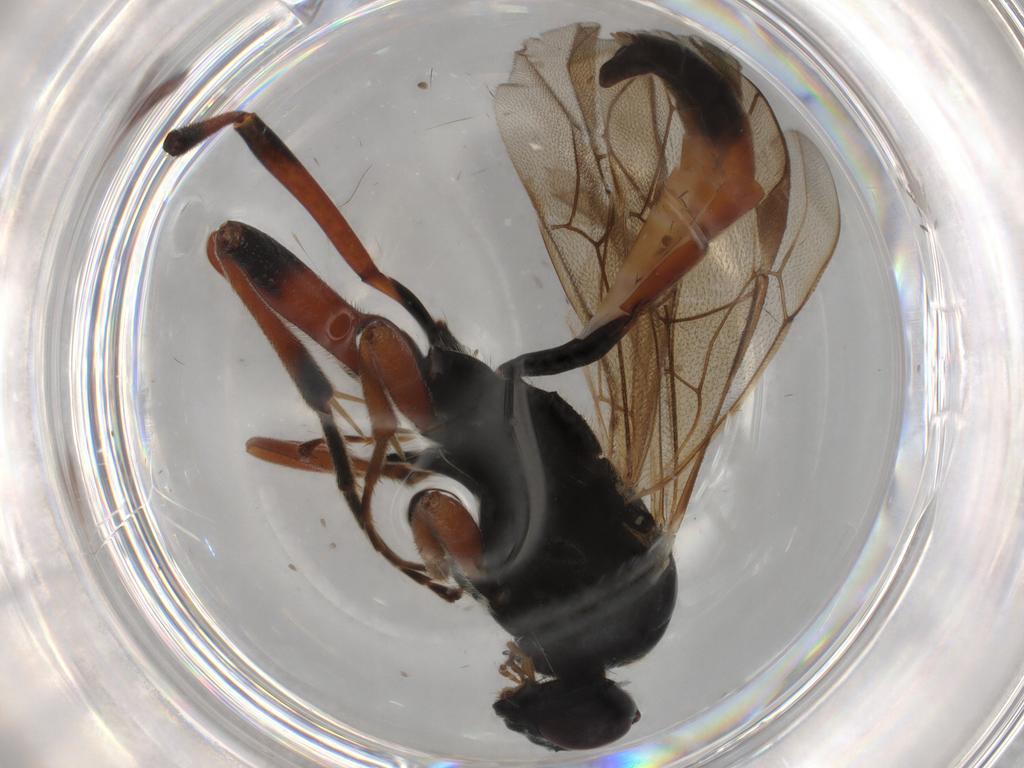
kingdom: Animalia
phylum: Arthropoda
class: Insecta
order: Hymenoptera
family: Ichneumonidae
